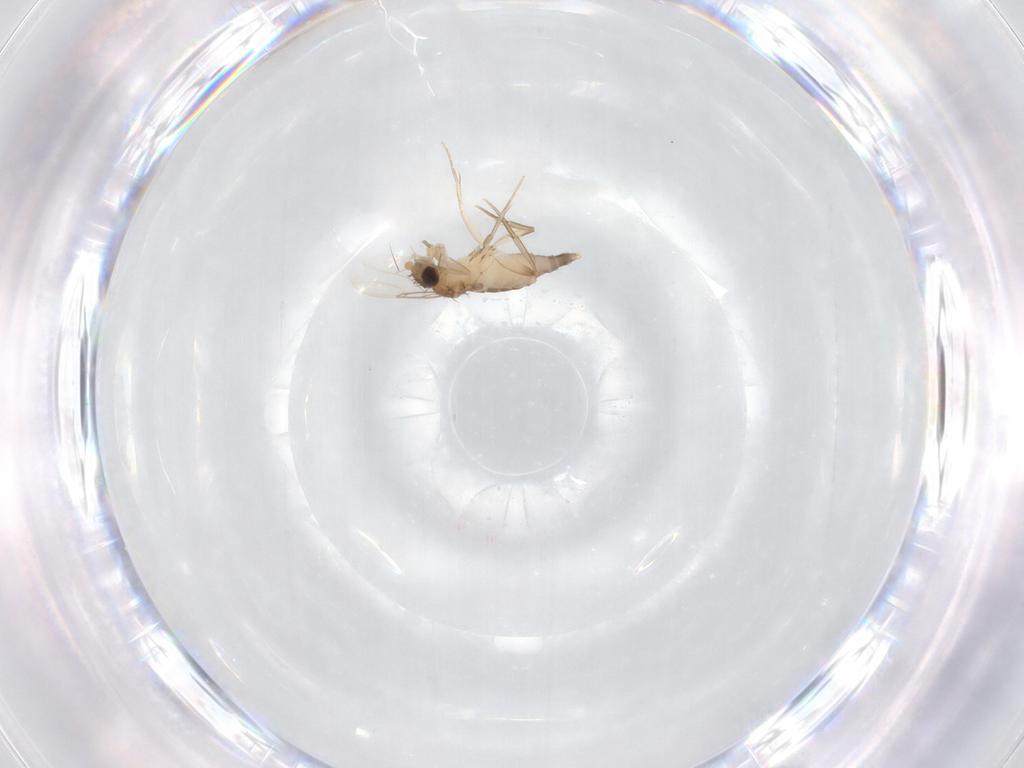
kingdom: Animalia
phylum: Arthropoda
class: Insecta
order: Diptera
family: Phoridae
